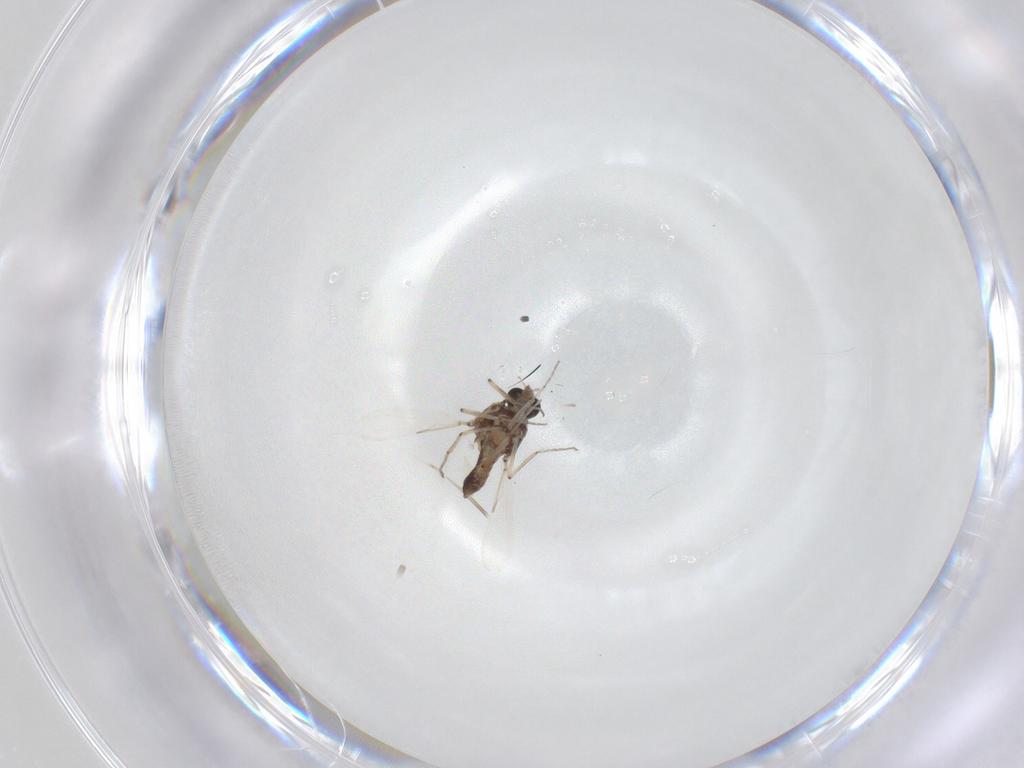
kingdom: Animalia
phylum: Arthropoda
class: Insecta
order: Diptera
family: Ceratopogonidae
